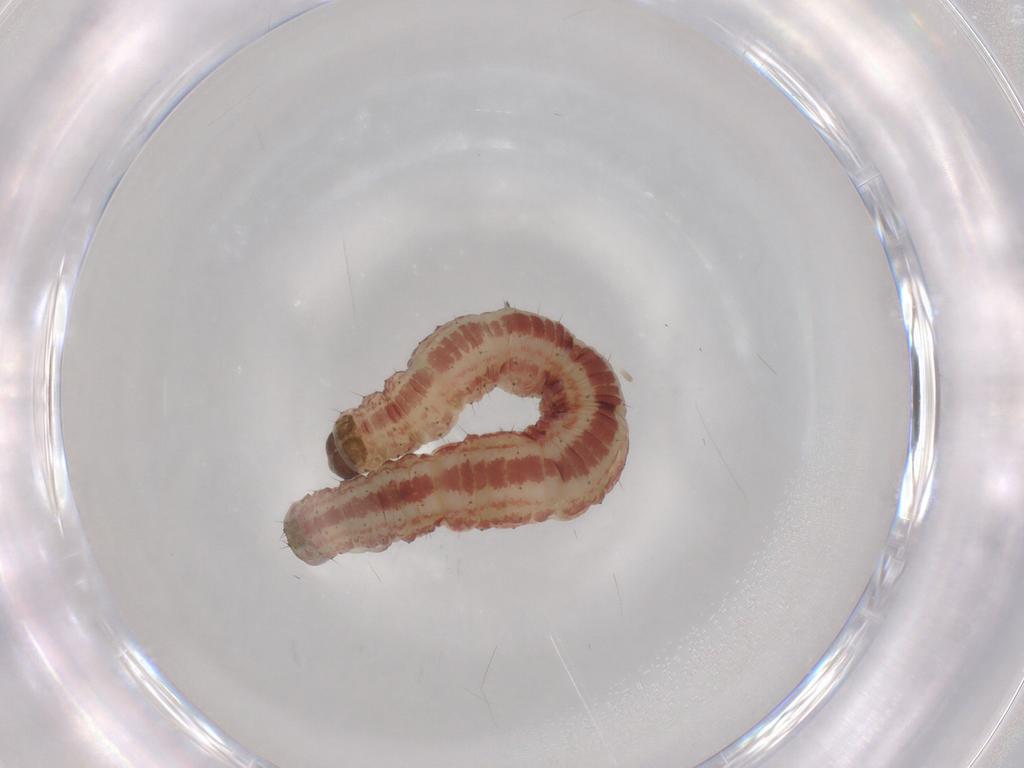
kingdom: Animalia
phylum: Arthropoda
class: Insecta
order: Lepidoptera
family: Geometridae
